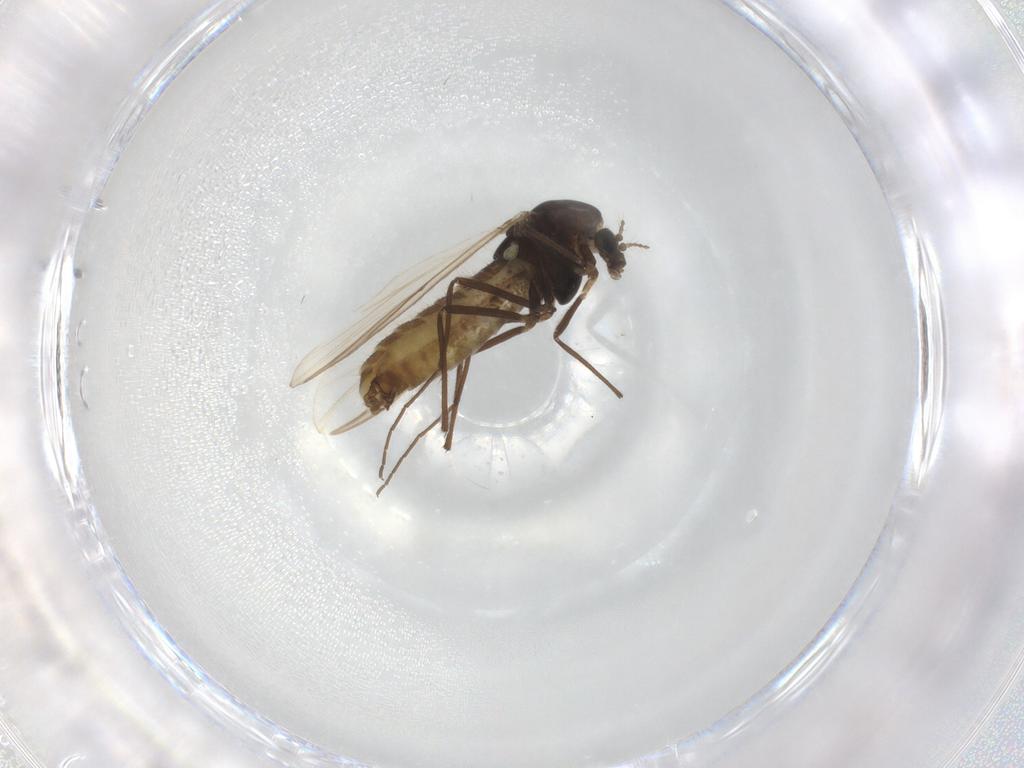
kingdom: Animalia
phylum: Arthropoda
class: Insecta
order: Diptera
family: Chironomidae
